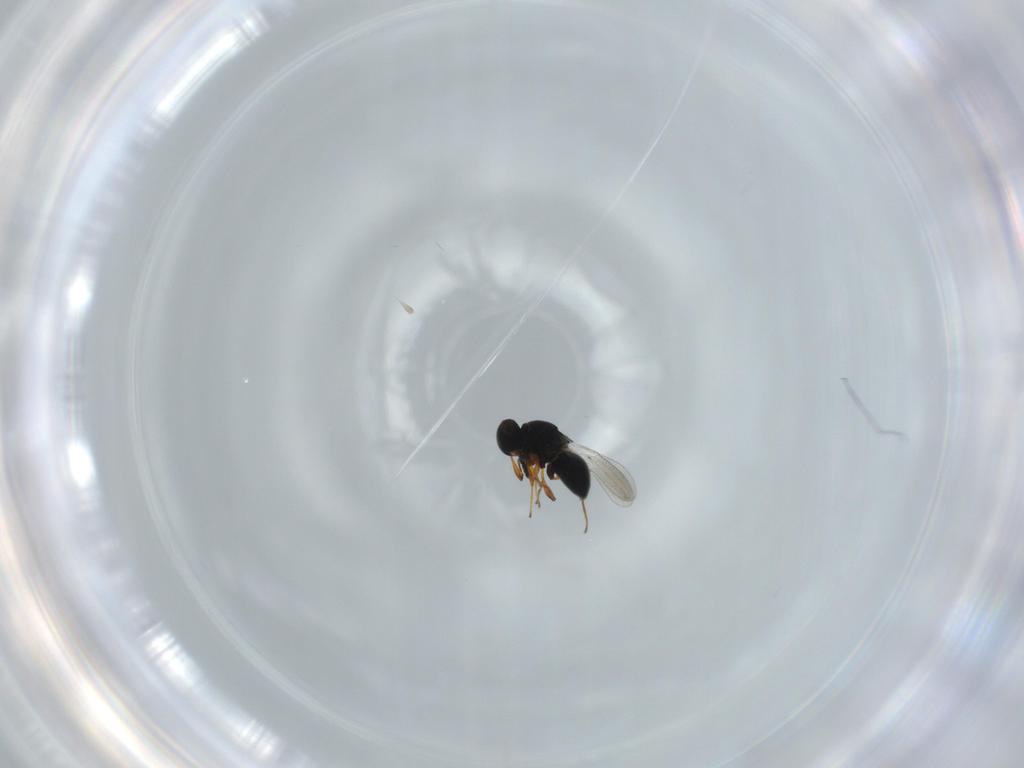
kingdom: Animalia
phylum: Arthropoda
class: Insecta
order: Hymenoptera
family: Platygastridae
